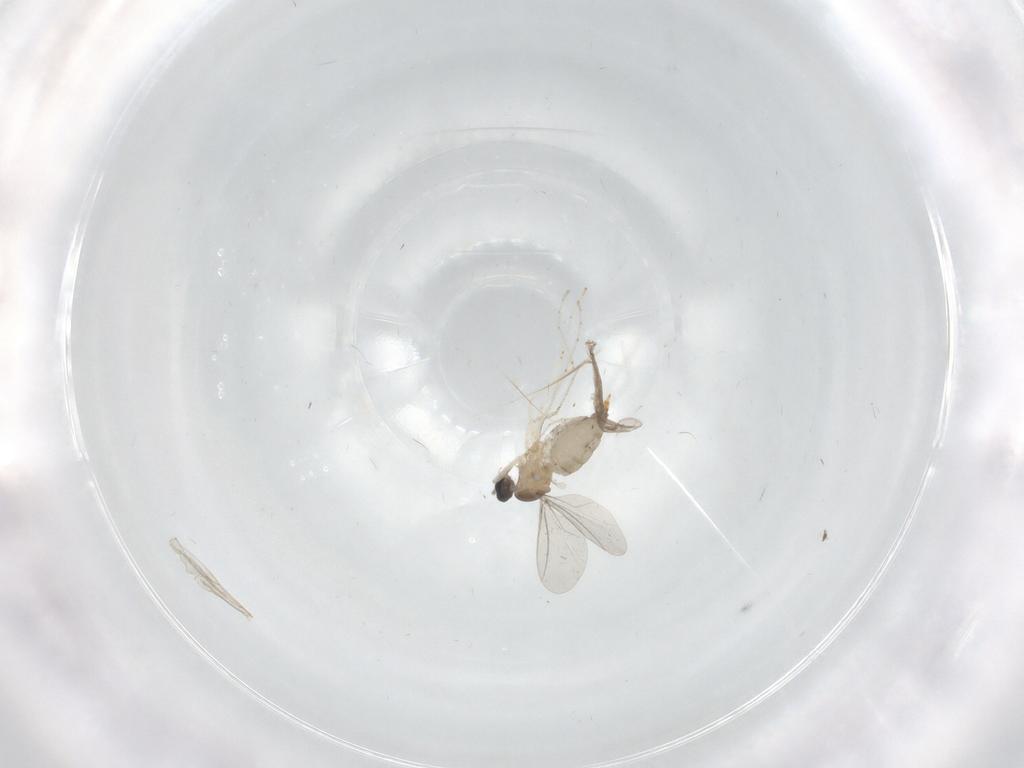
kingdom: Animalia
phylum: Arthropoda
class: Insecta
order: Diptera
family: Cecidomyiidae
